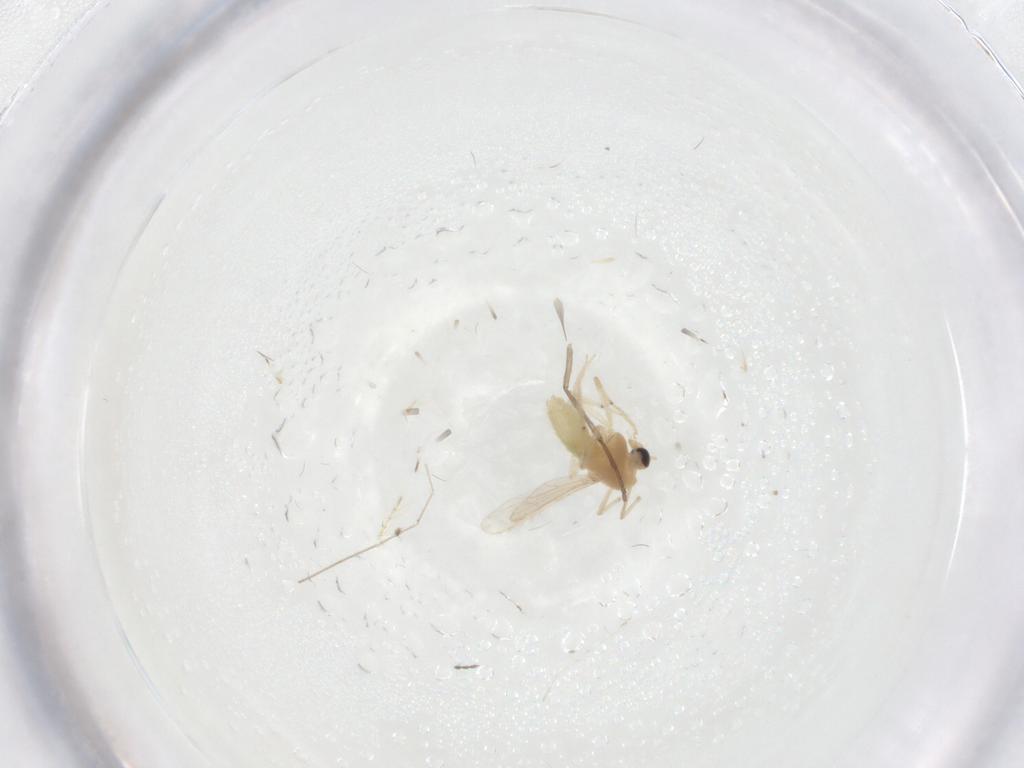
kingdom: Animalia
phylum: Arthropoda
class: Insecta
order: Diptera
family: Chironomidae
